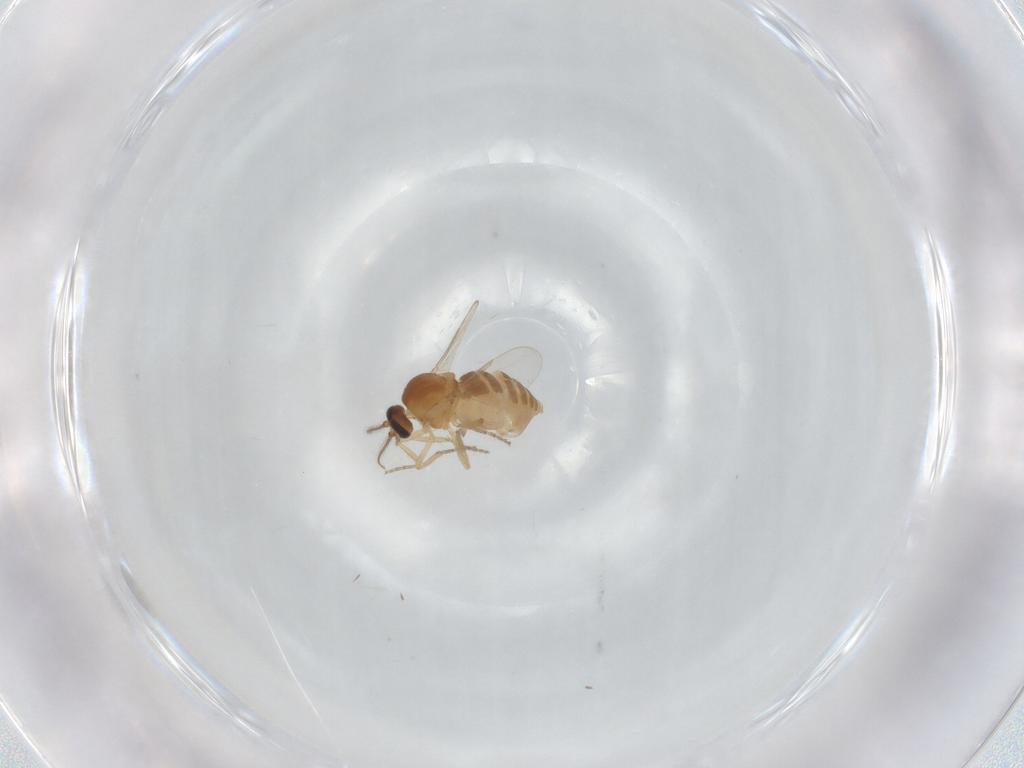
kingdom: Animalia
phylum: Arthropoda
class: Insecta
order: Diptera
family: Ceratopogonidae
